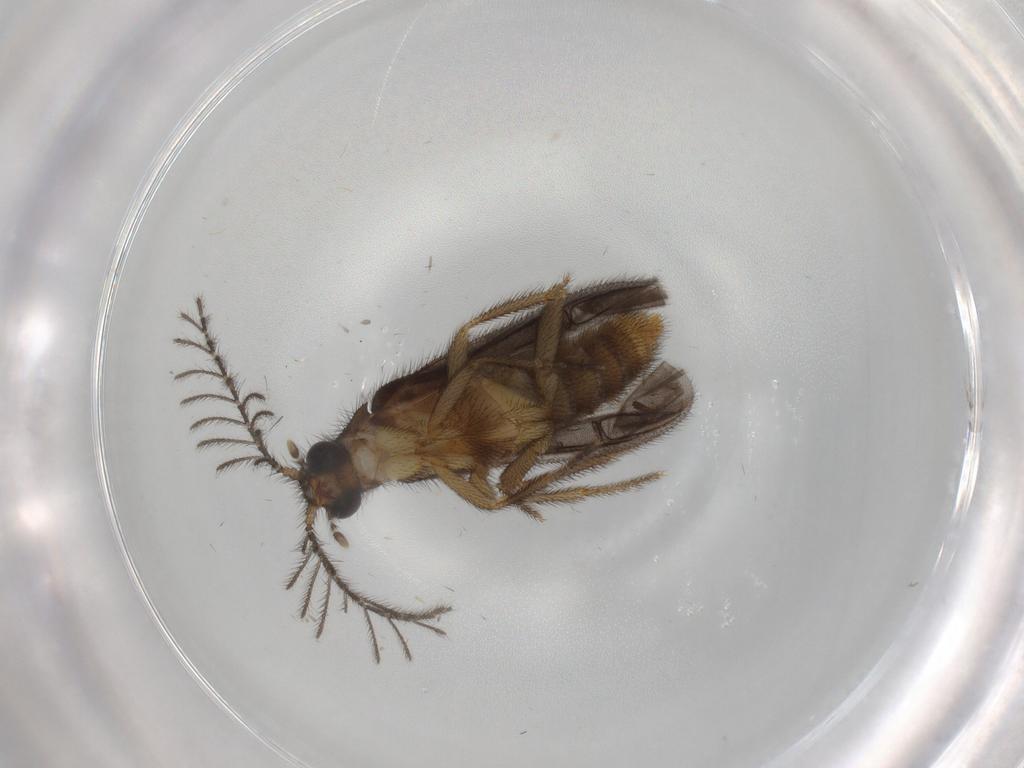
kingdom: Animalia
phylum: Arthropoda
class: Insecta
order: Coleoptera
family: Phengodidae
